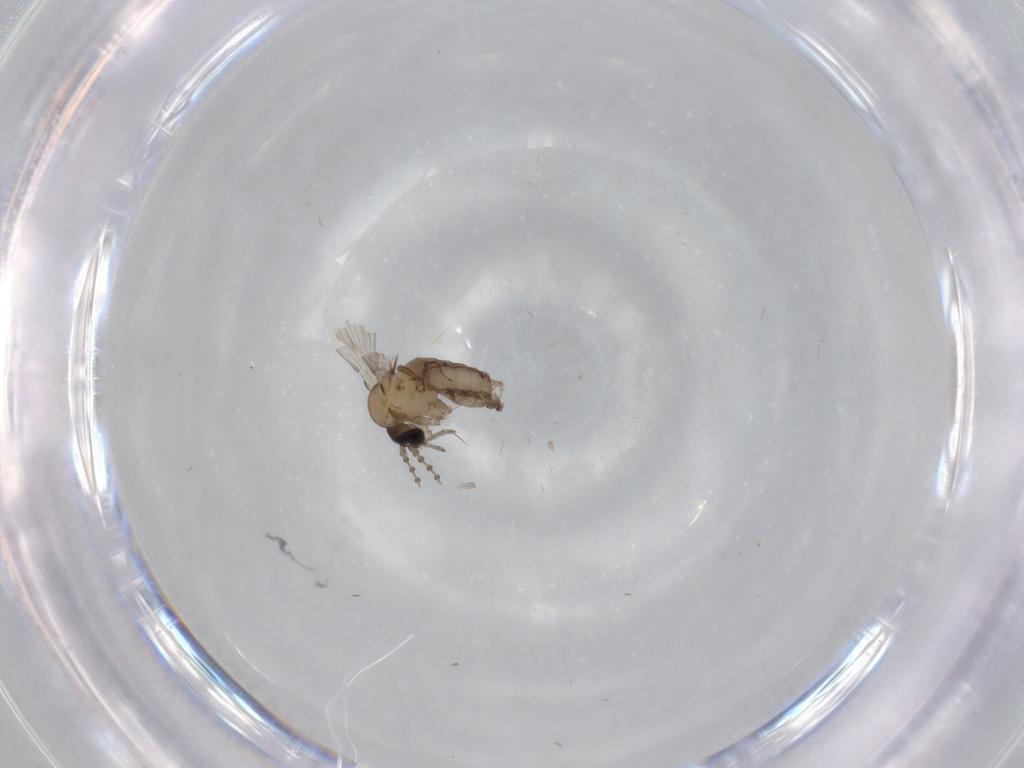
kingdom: Animalia
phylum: Arthropoda
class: Insecta
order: Diptera
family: Psychodidae
